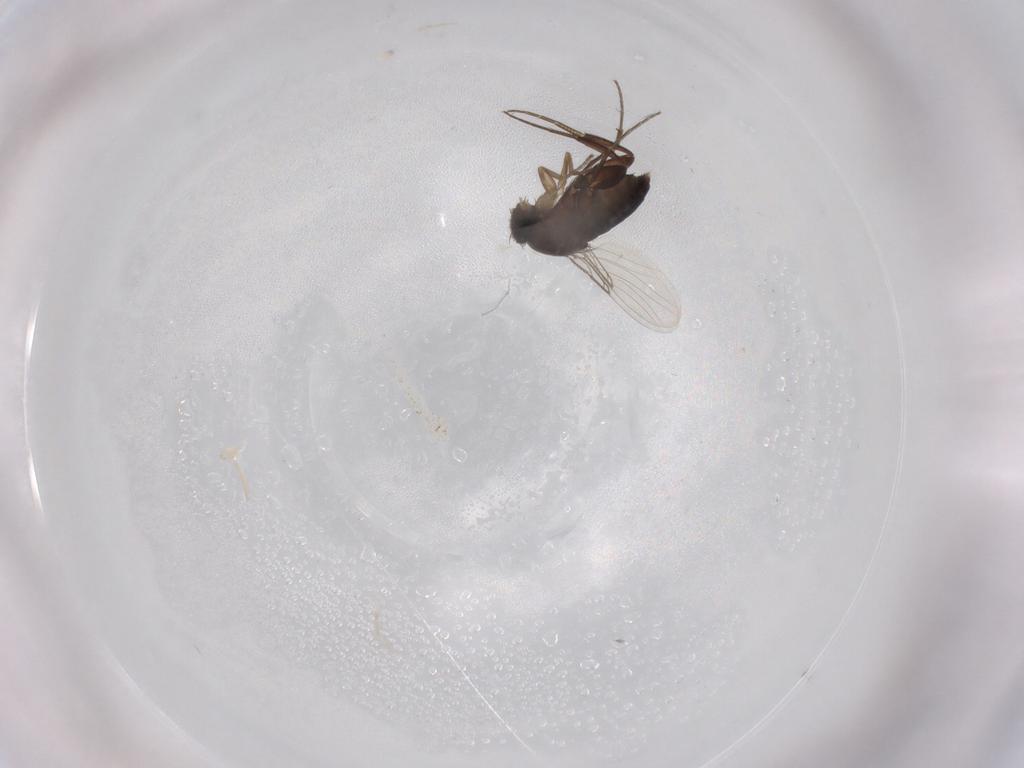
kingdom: Animalia
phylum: Arthropoda
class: Insecta
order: Diptera
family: Phoridae
